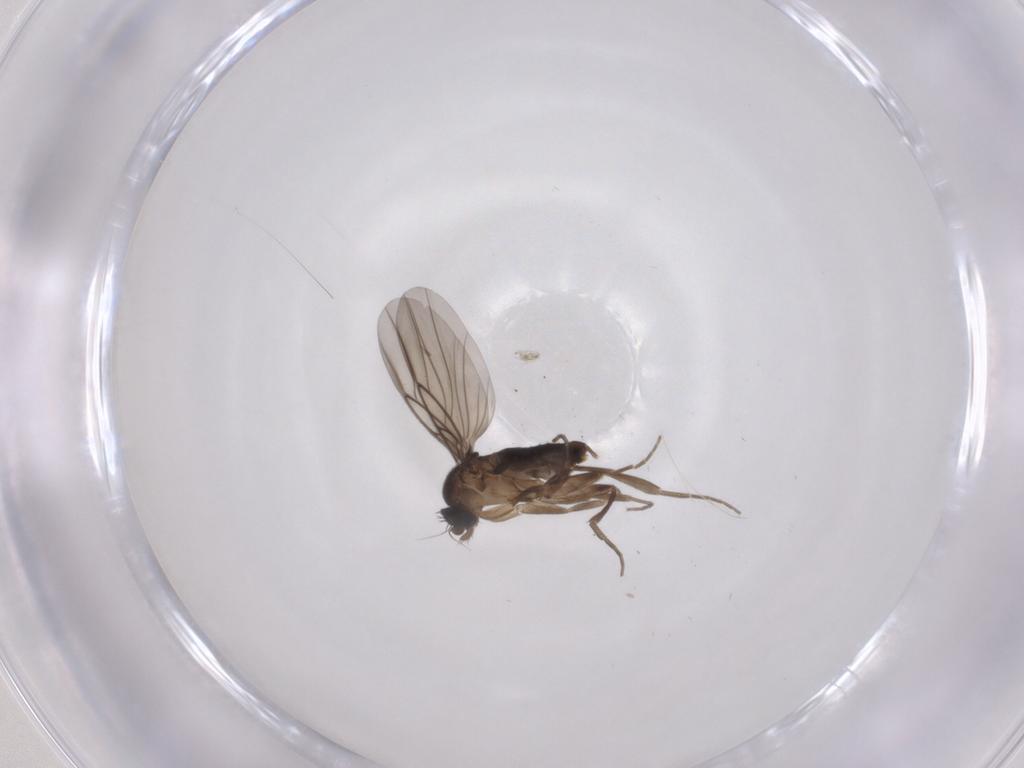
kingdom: Animalia
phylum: Arthropoda
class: Insecta
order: Diptera
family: Phoridae
